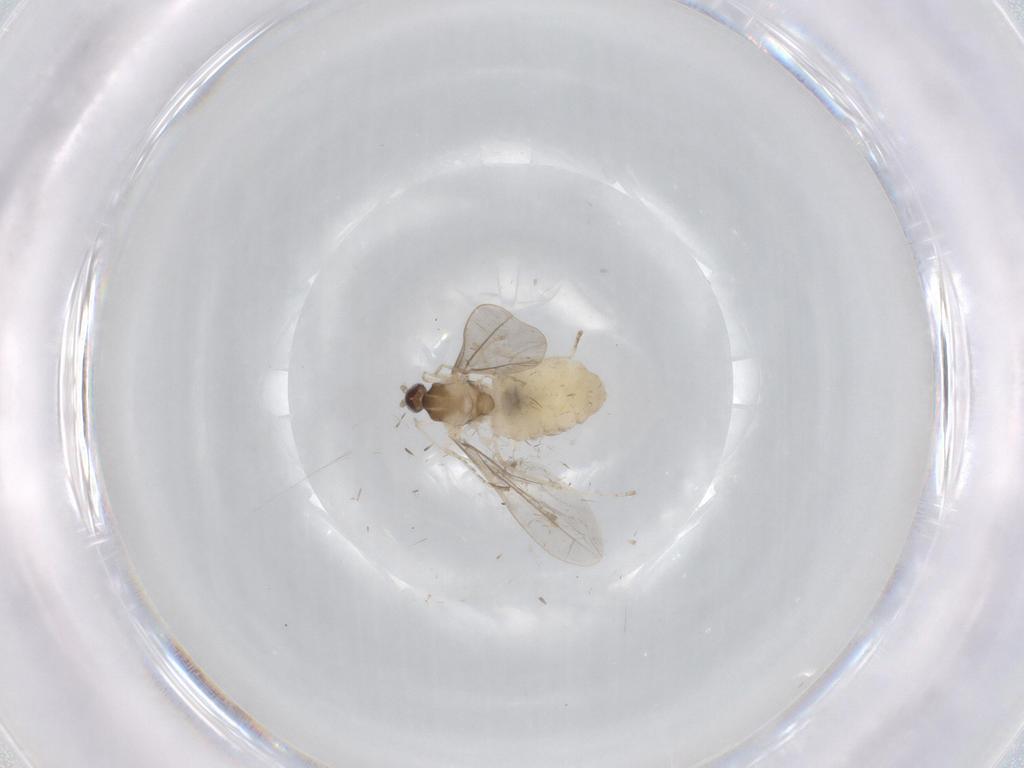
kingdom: Animalia
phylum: Arthropoda
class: Insecta
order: Diptera
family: Cecidomyiidae
